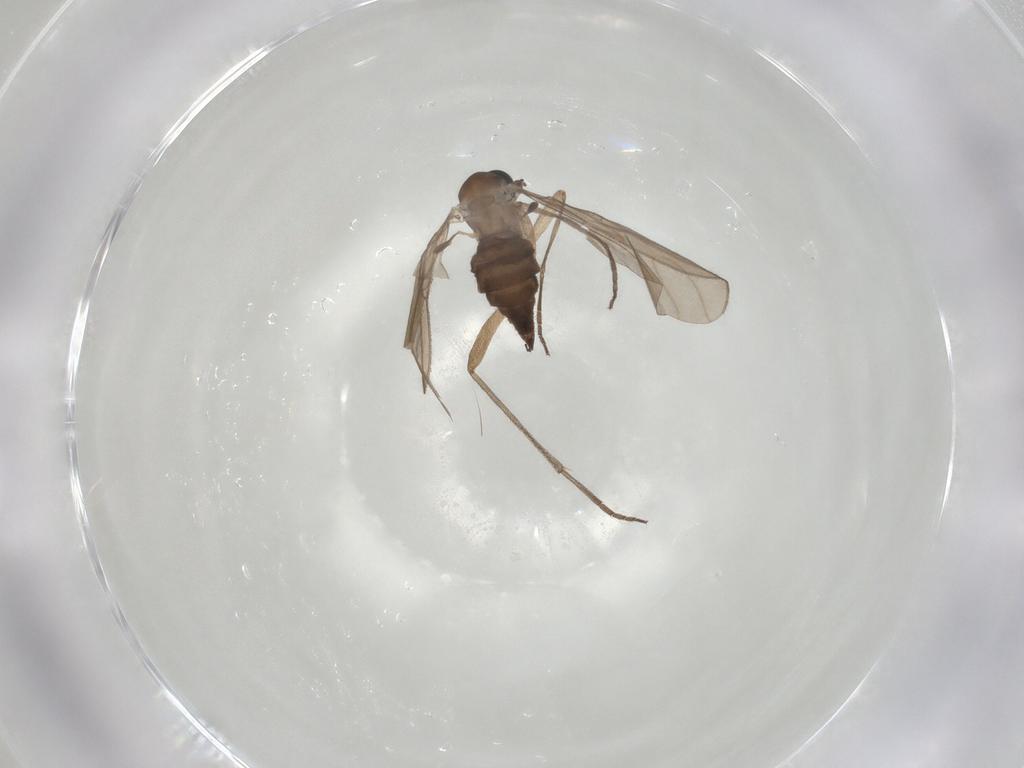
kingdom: Animalia
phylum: Arthropoda
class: Insecta
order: Diptera
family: Sciaridae
